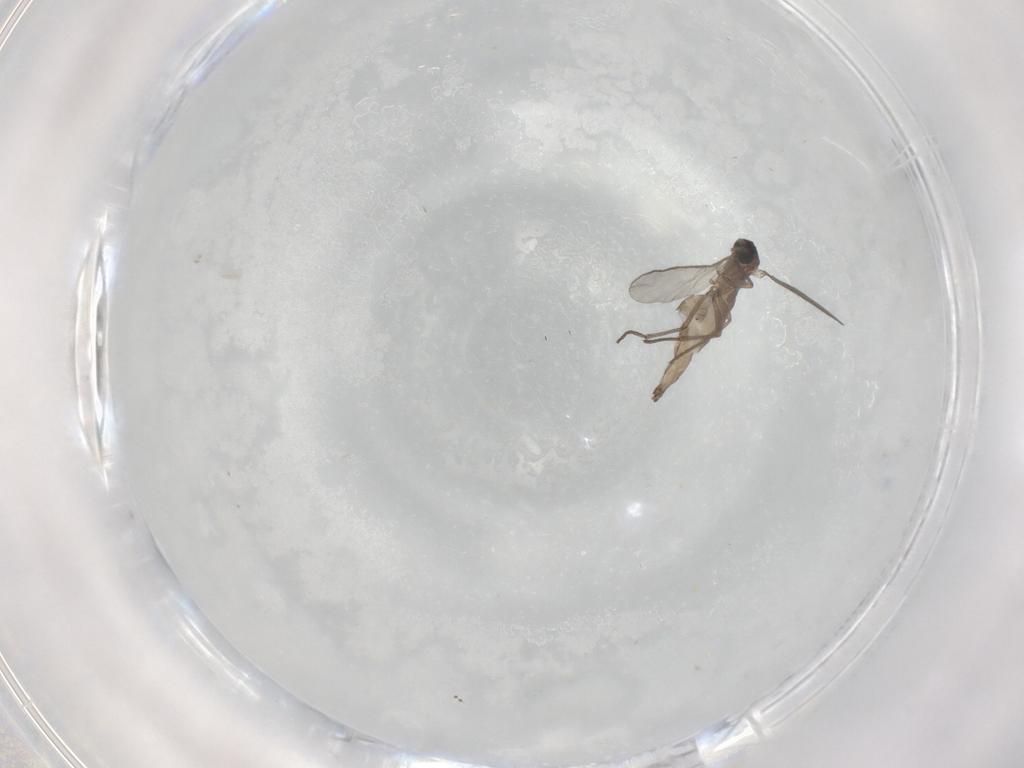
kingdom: Animalia
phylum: Arthropoda
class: Insecta
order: Diptera
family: Sciaridae
